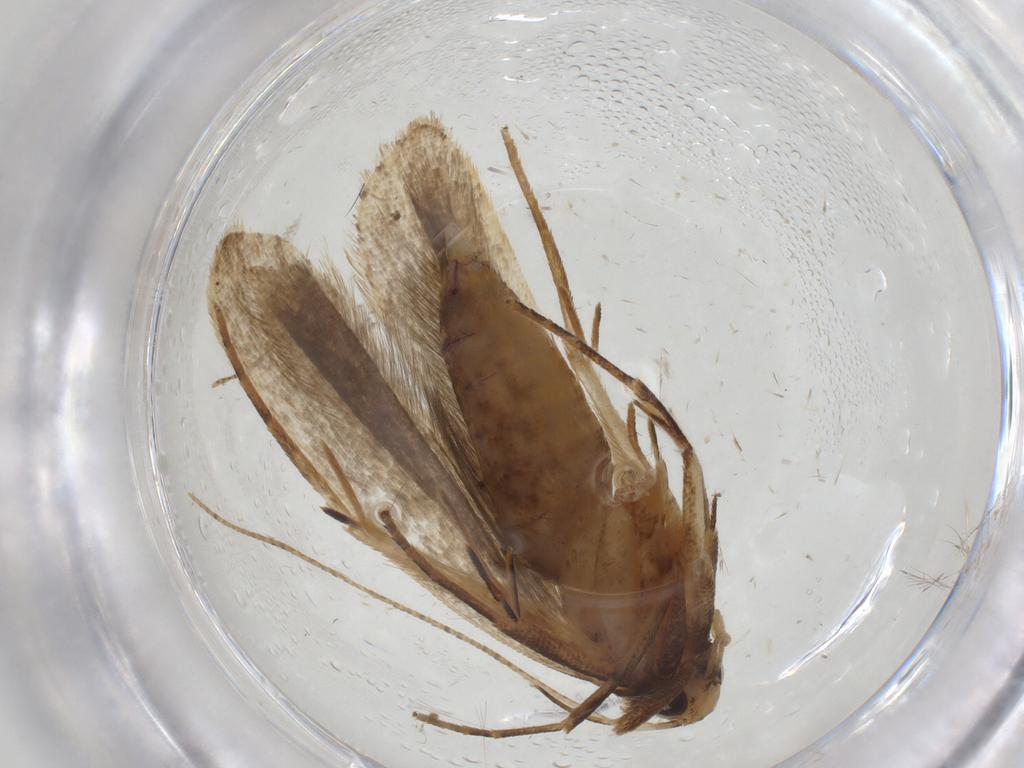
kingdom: Animalia
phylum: Arthropoda
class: Insecta
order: Lepidoptera
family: Gelechiidae
